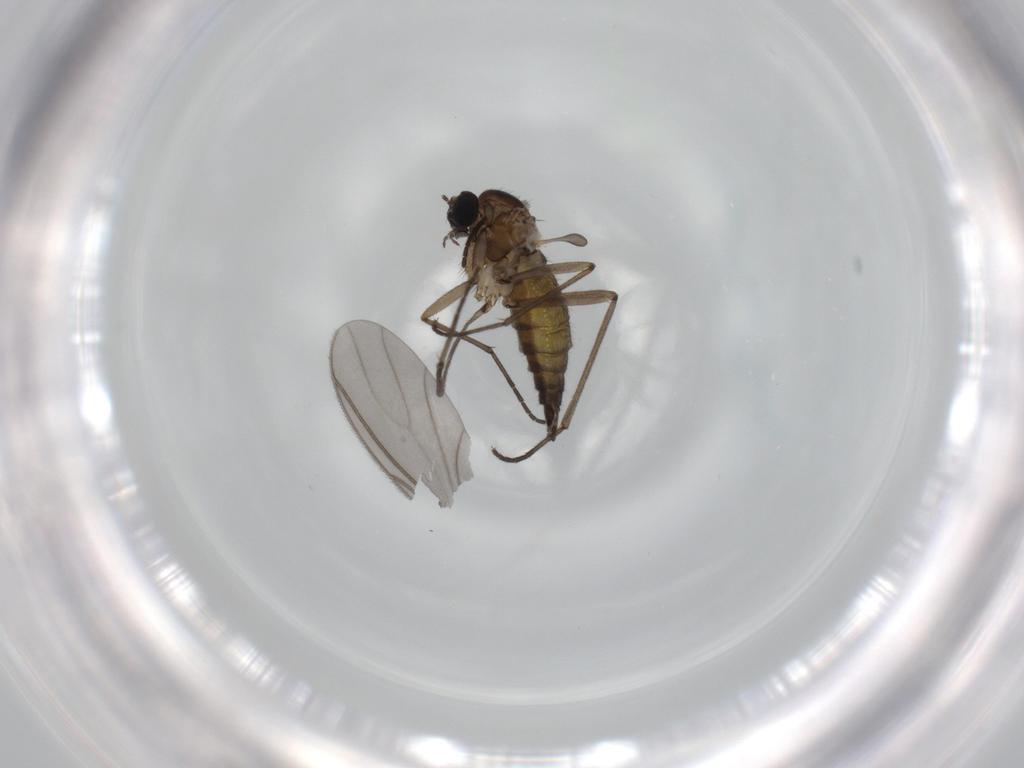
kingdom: Animalia
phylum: Arthropoda
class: Insecta
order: Diptera
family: Sciaridae
